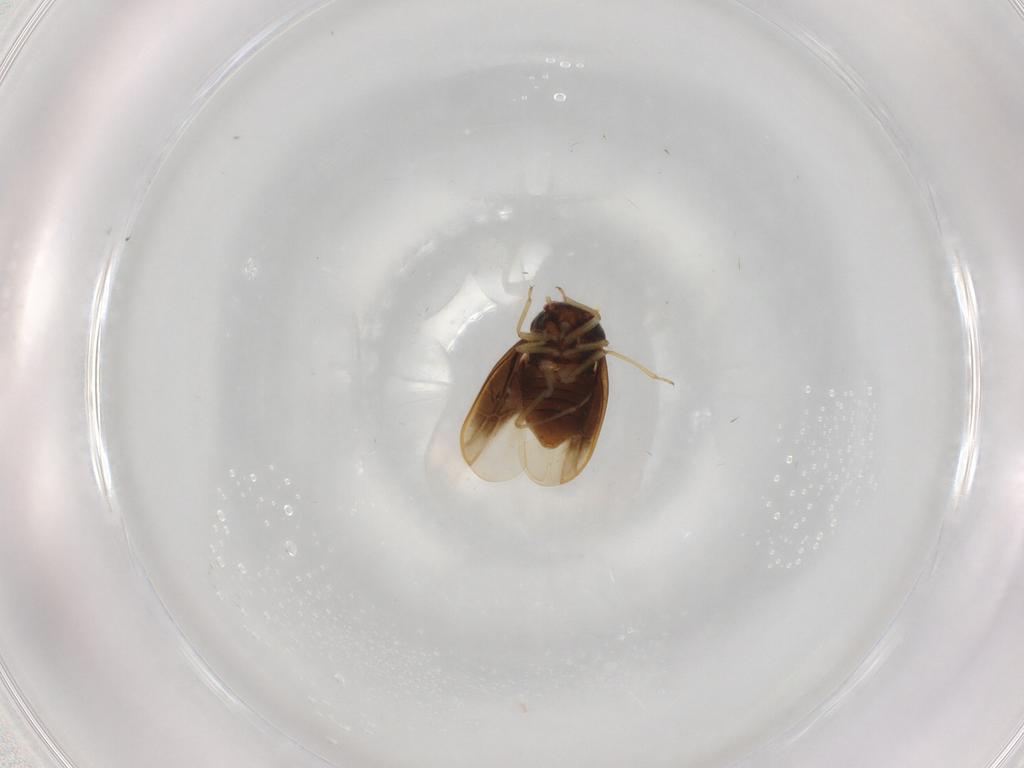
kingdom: Animalia
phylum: Arthropoda
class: Insecta
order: Hemiptera
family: Schizopteridae
